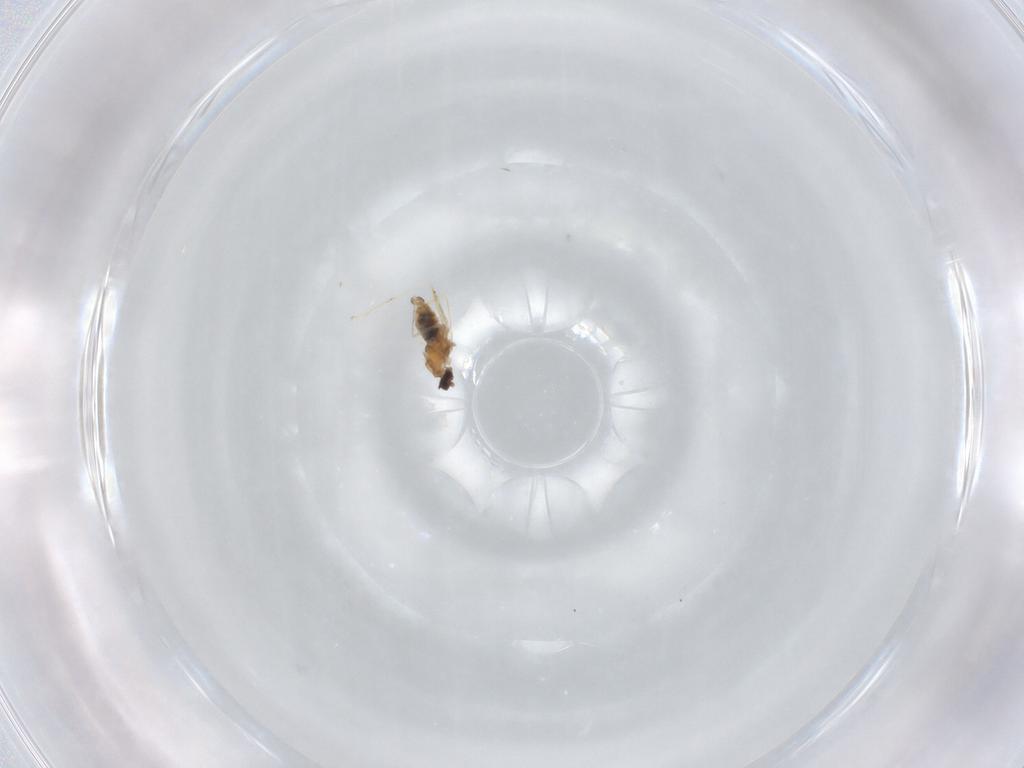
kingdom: Animalia
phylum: Arthropoda
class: Insecta
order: Diptera
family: Cecidomyiidae
